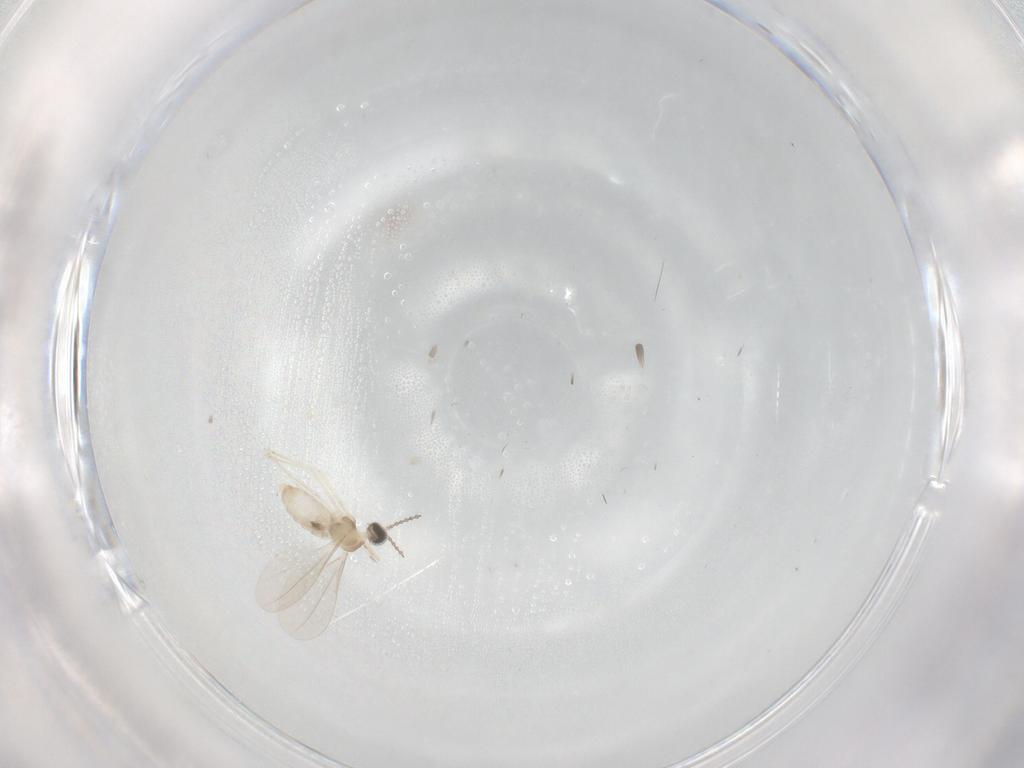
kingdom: Animalia
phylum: Arthropoda
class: Insecta
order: Diptera
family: Cecidomyiidae
